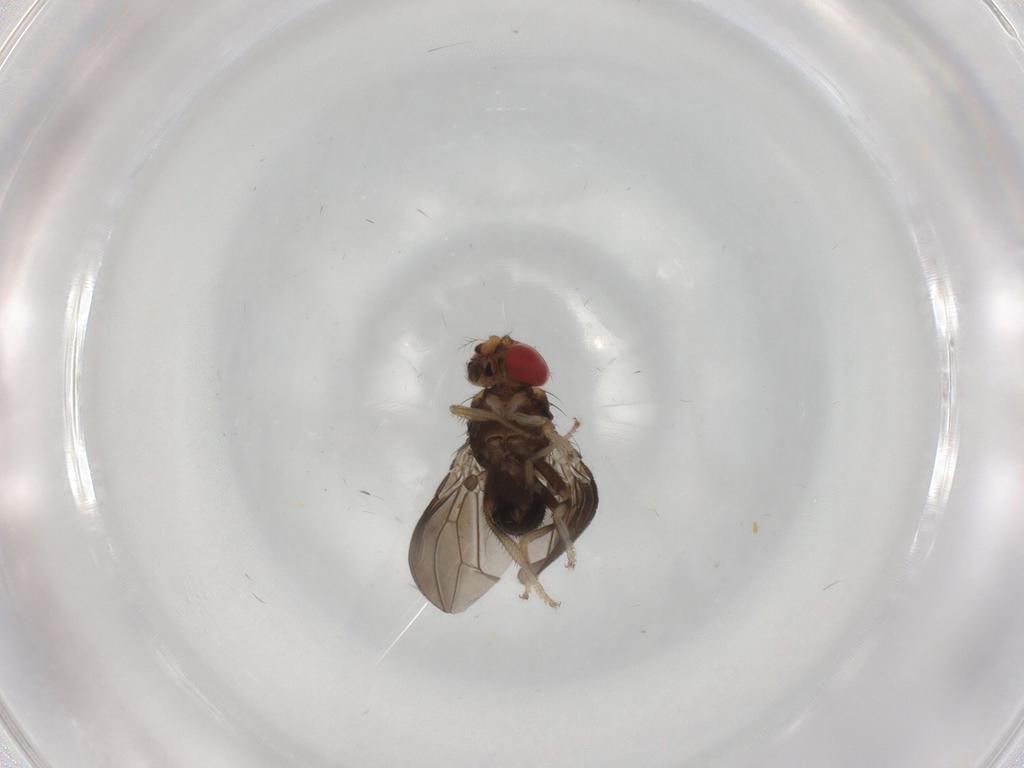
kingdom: Animalia
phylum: Arthropoda
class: Insecta
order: Diptera
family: Drosophilidae
